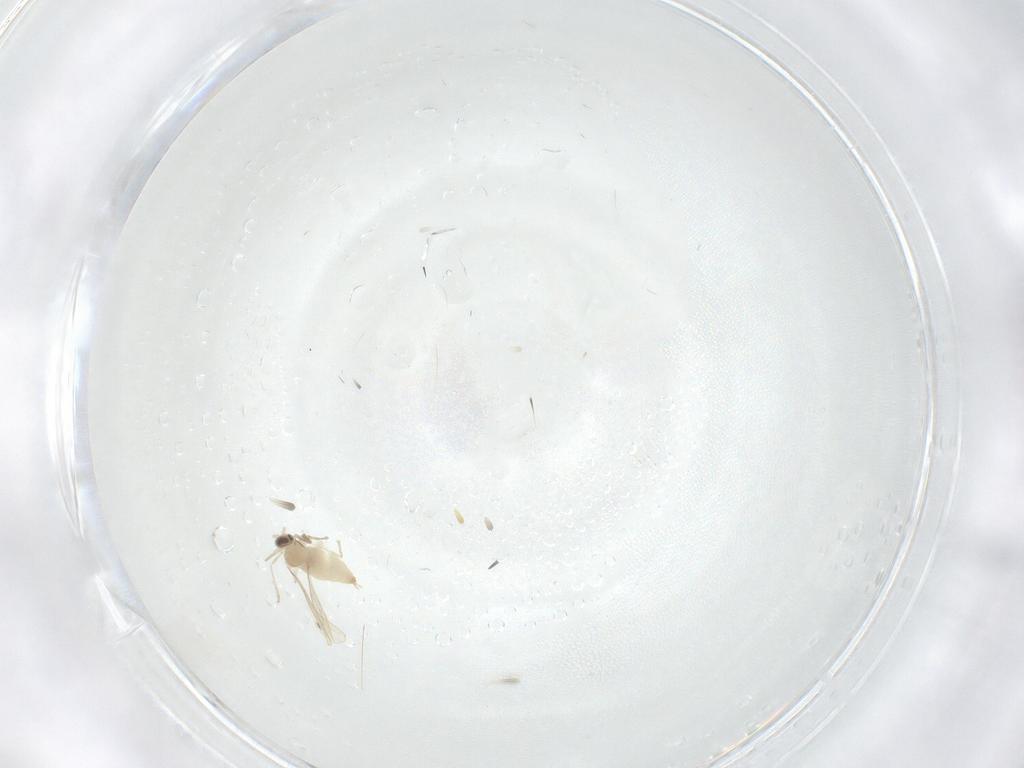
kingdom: Animalia
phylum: Arthropoda
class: Insecta
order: Diptera
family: Cecidomyiidae
